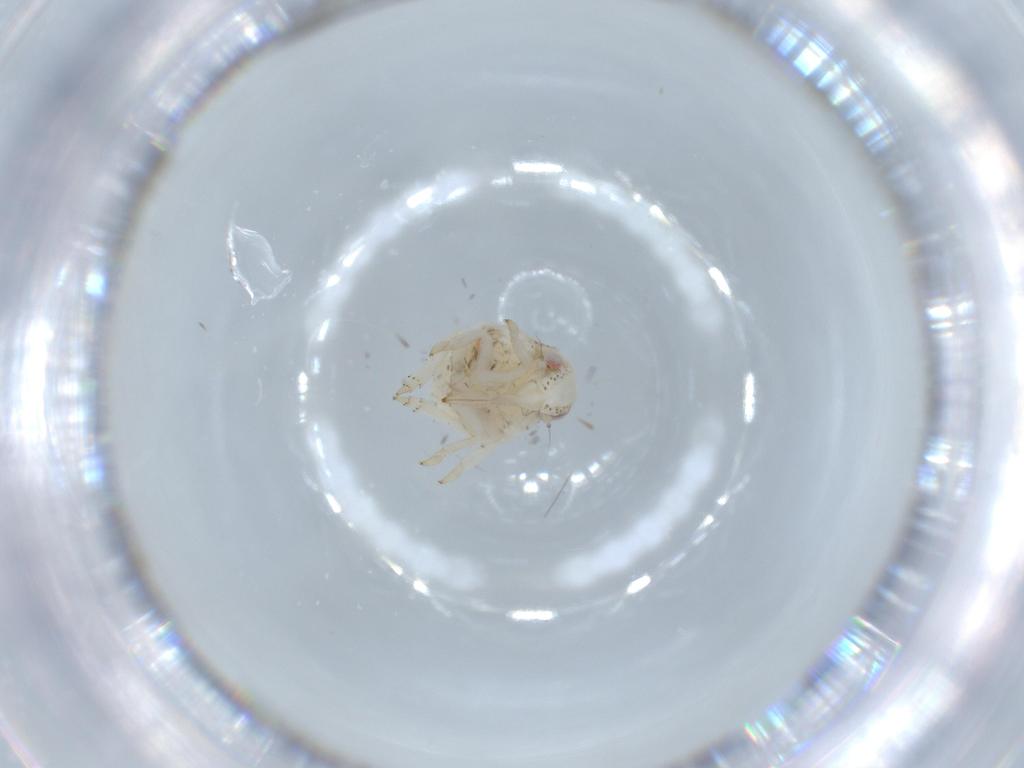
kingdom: Animalia
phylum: Arthropoda
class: Insecta
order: Hemiptera
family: Acanaloniidae
